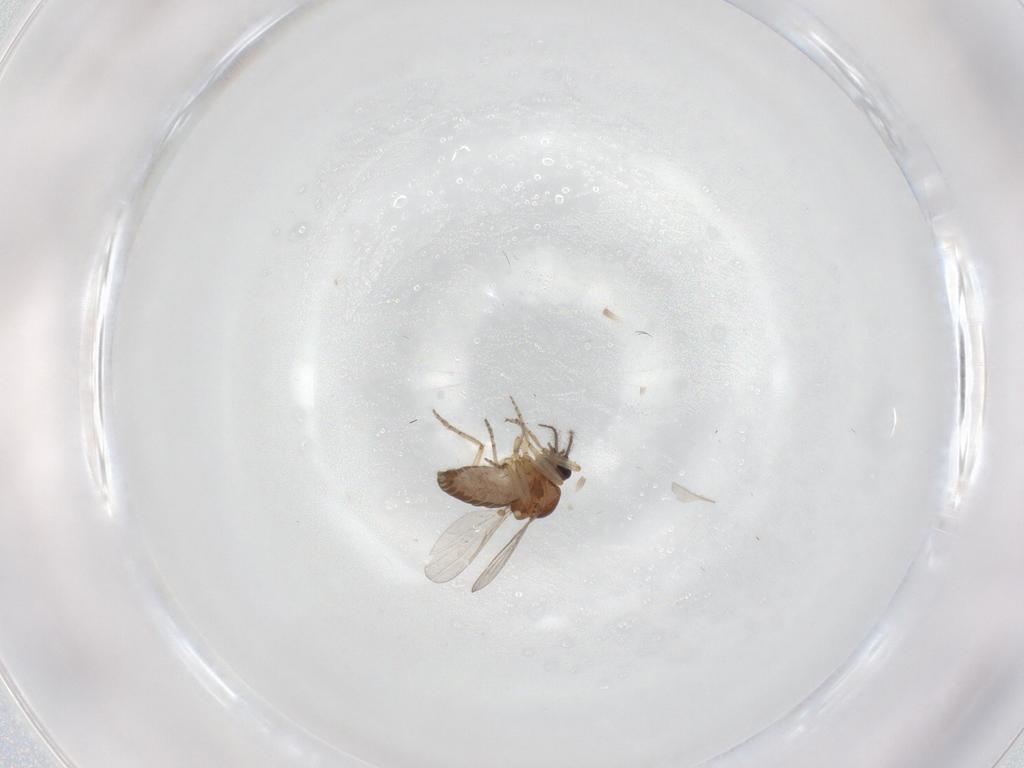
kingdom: Animalia
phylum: Arthropoda
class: Insecta
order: Diptera
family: Ceratopogonidae
